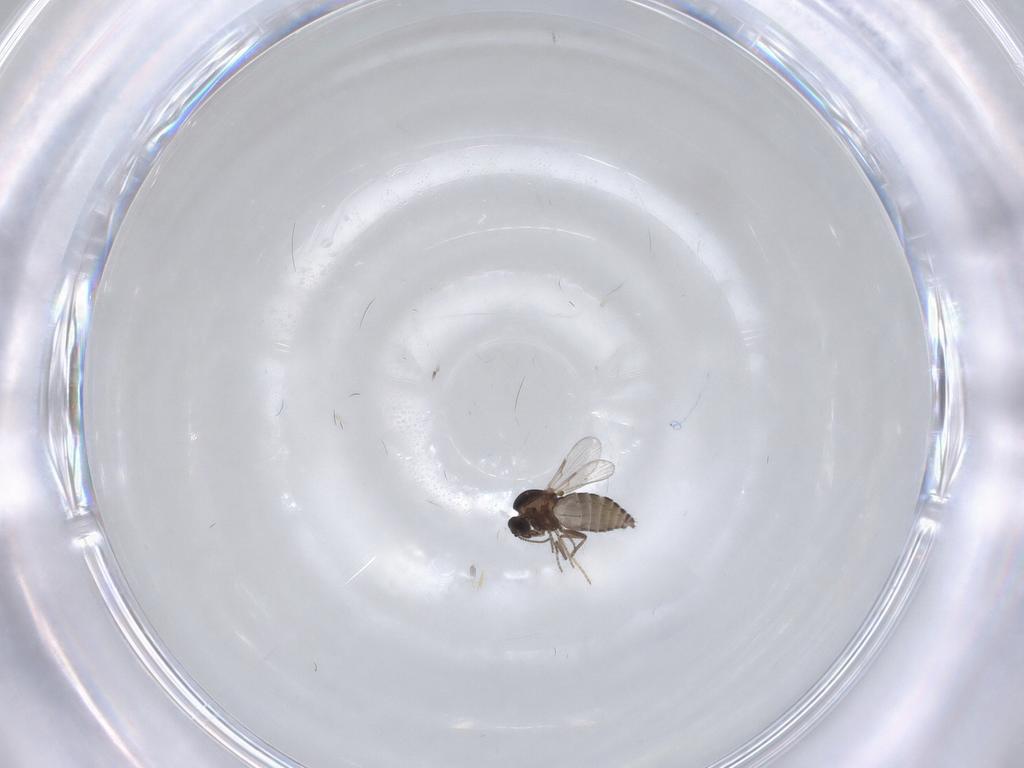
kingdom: Animalia
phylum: Arthropoda
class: Insecta
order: Diptera
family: Ceratopogonidae
